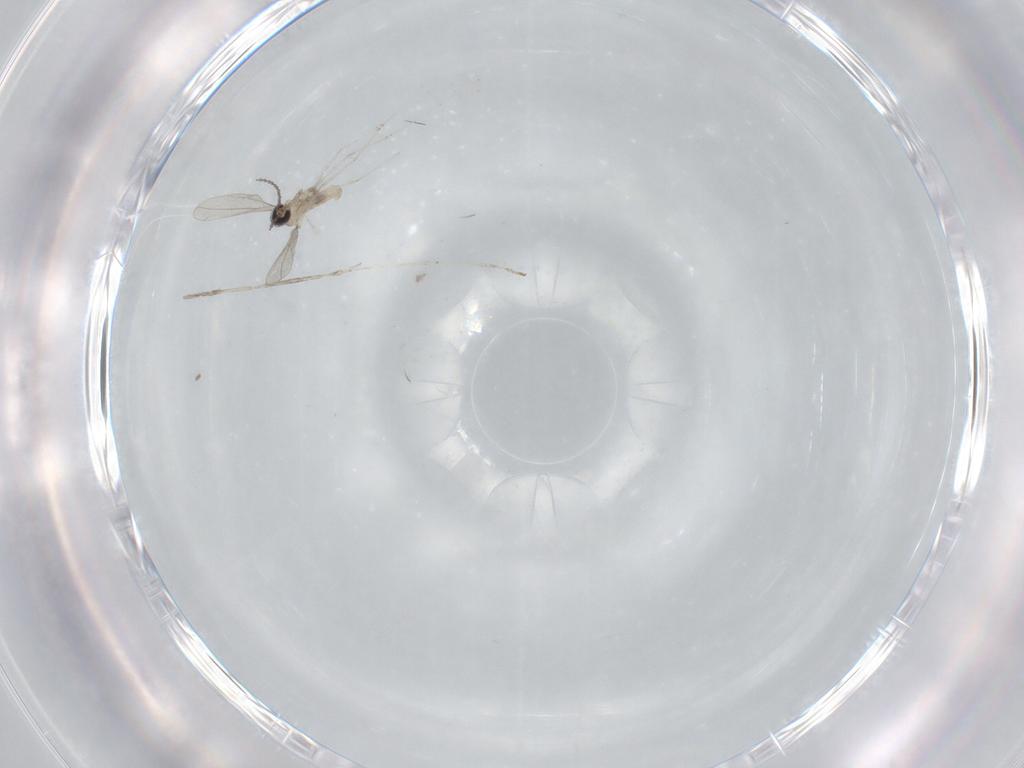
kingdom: Animalia
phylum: Arthropoda
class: Insecta
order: Diptera
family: Cecidomyiidae
